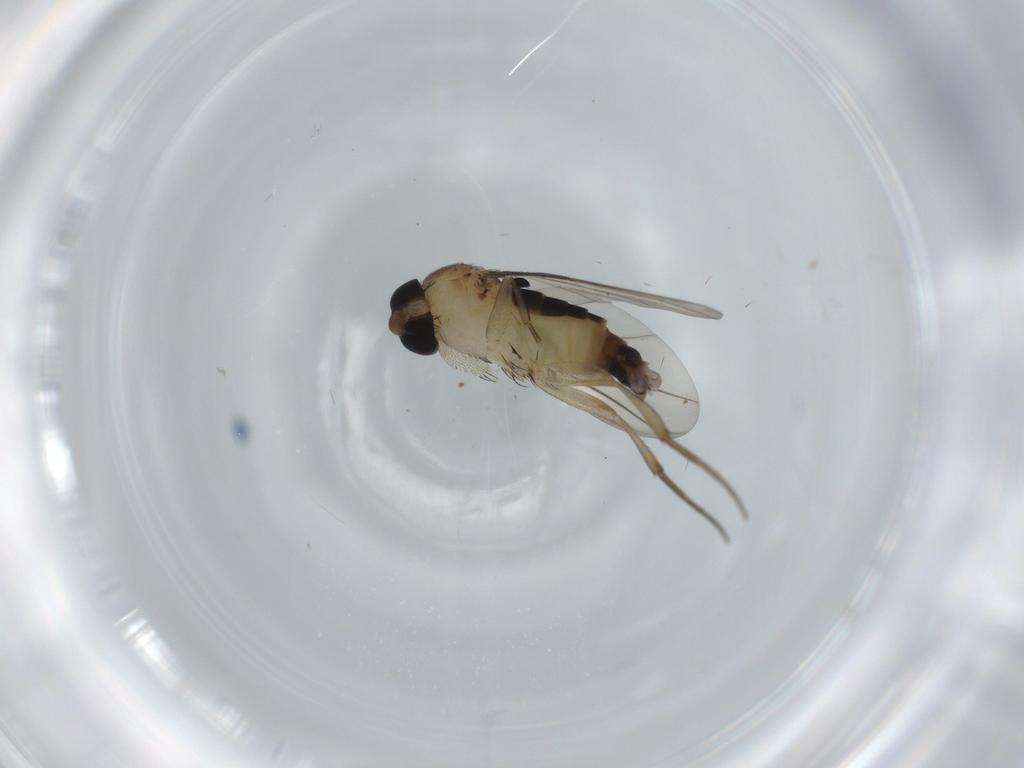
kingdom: Animalia
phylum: Arthropoda
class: Insecta
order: Diptera
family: Phoridae
